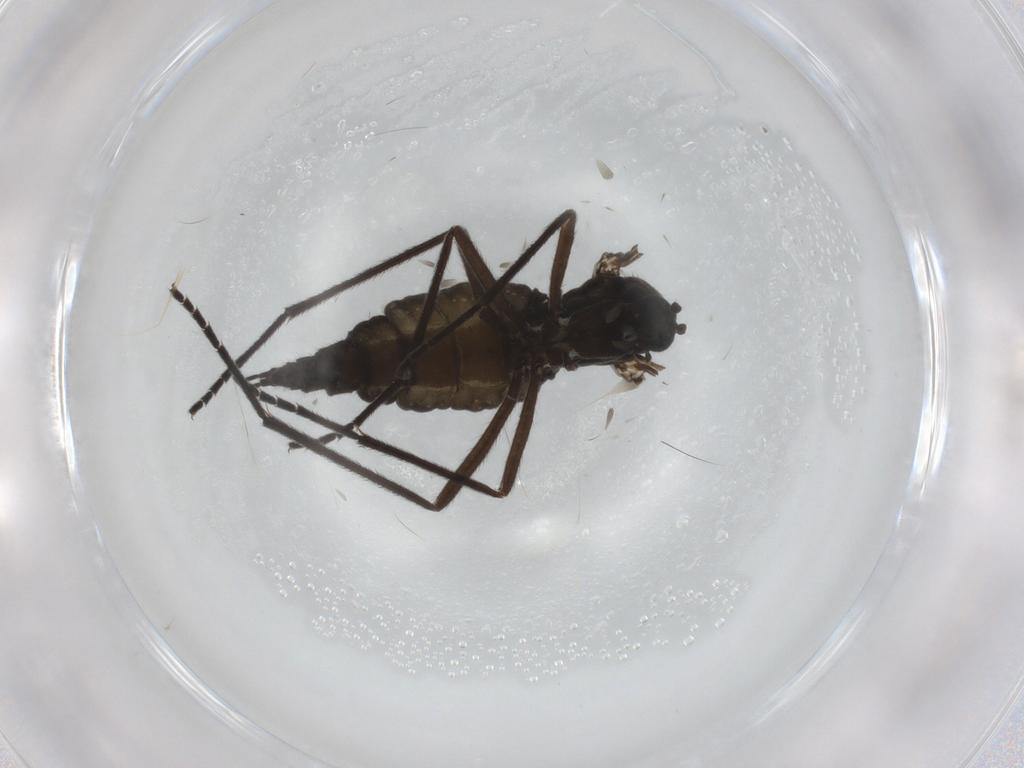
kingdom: Animalia
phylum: Arthropoda
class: Insecta
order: Diptera
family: Sciaridae
